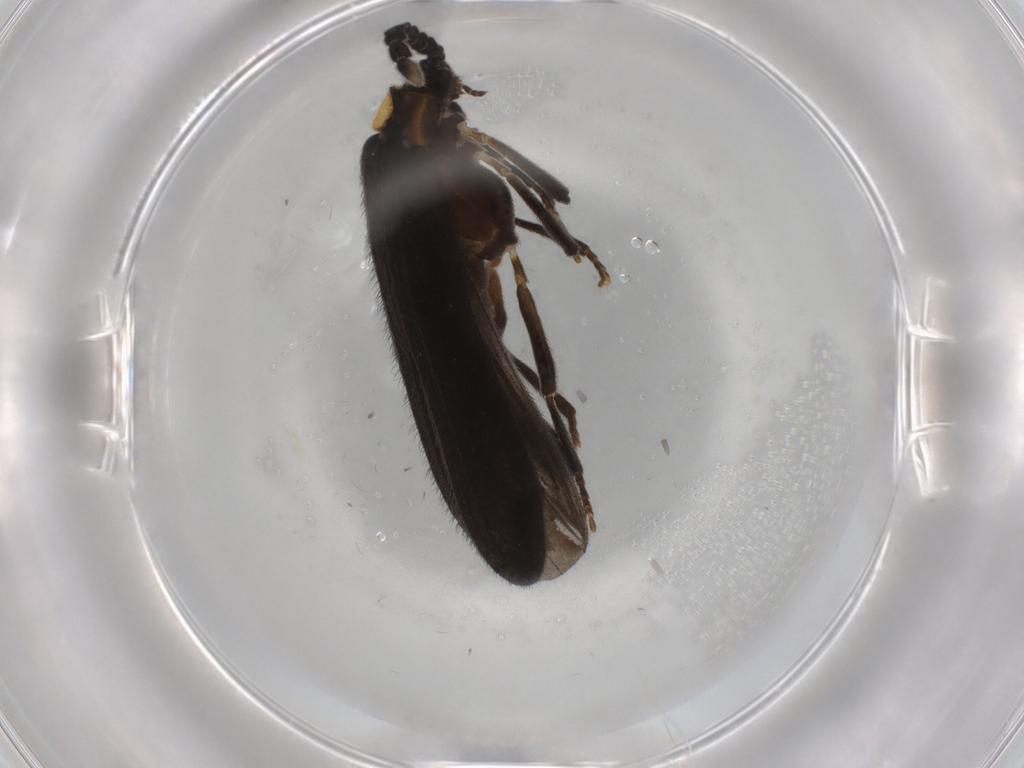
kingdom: Animalia
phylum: Arthropoda
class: Insecta
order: Coleoptera
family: Lycidae
